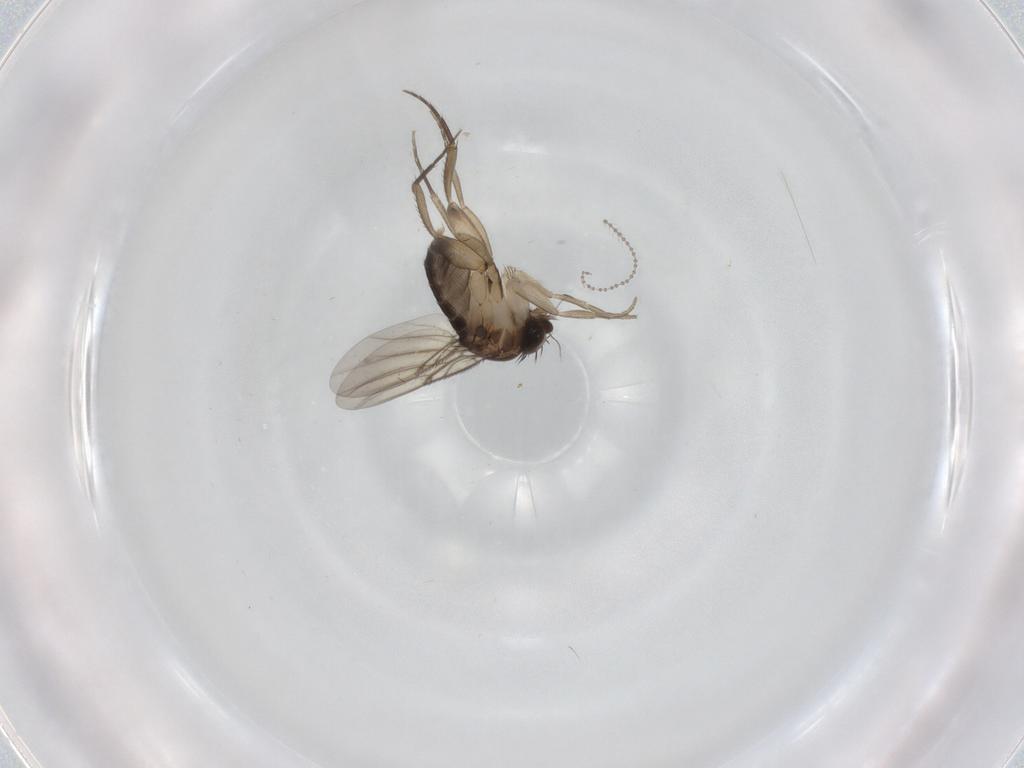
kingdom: Animalia
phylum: Arthropoda
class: Insecta
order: Diptera
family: Phoridae
